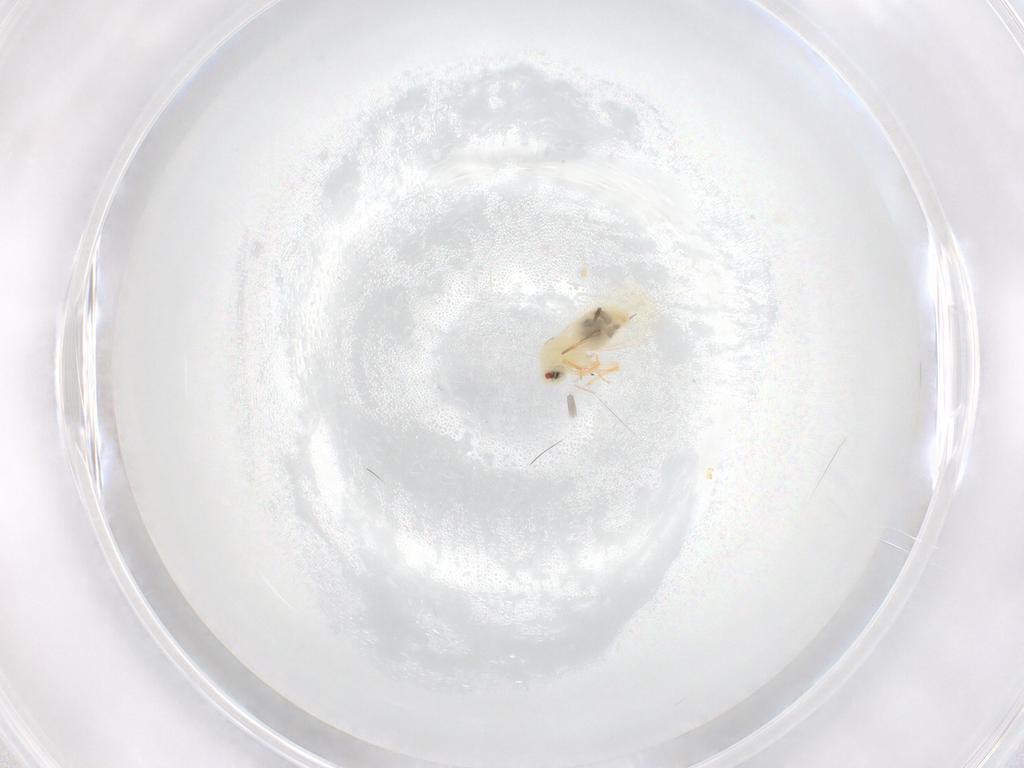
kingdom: Animalia
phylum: Arthropoda
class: Insecta
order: Hemiptera
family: Aleyrodidae
